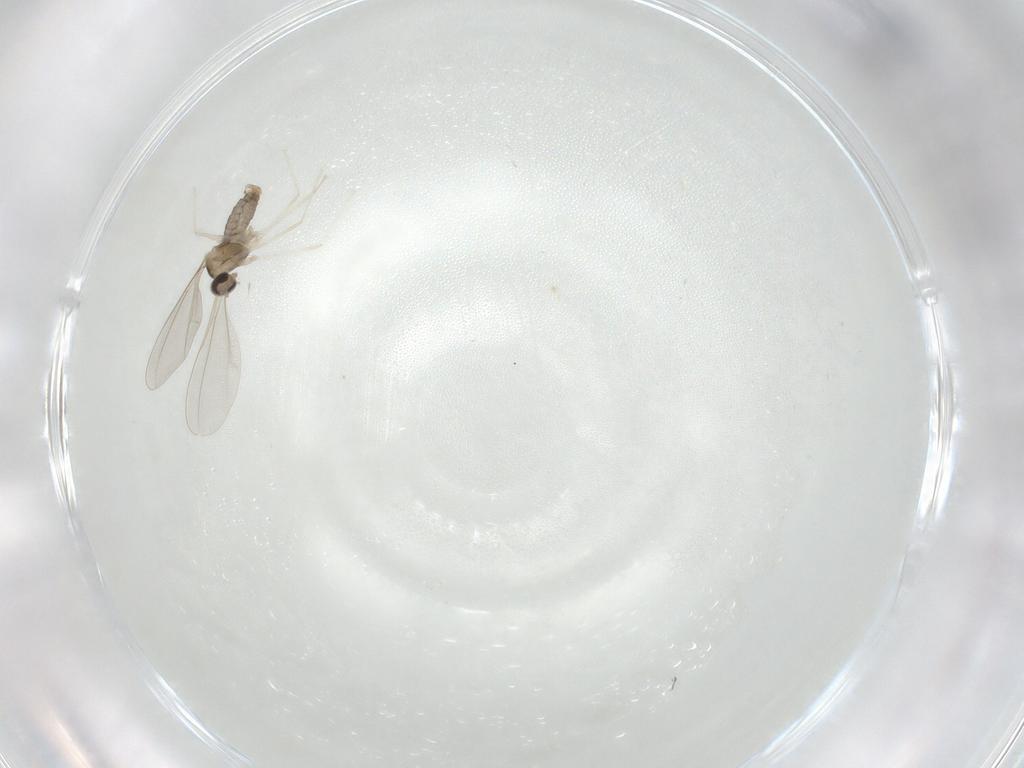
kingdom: Animalia
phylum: Arthropoda
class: Insecta
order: Diptera
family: Cecidomyiidae
